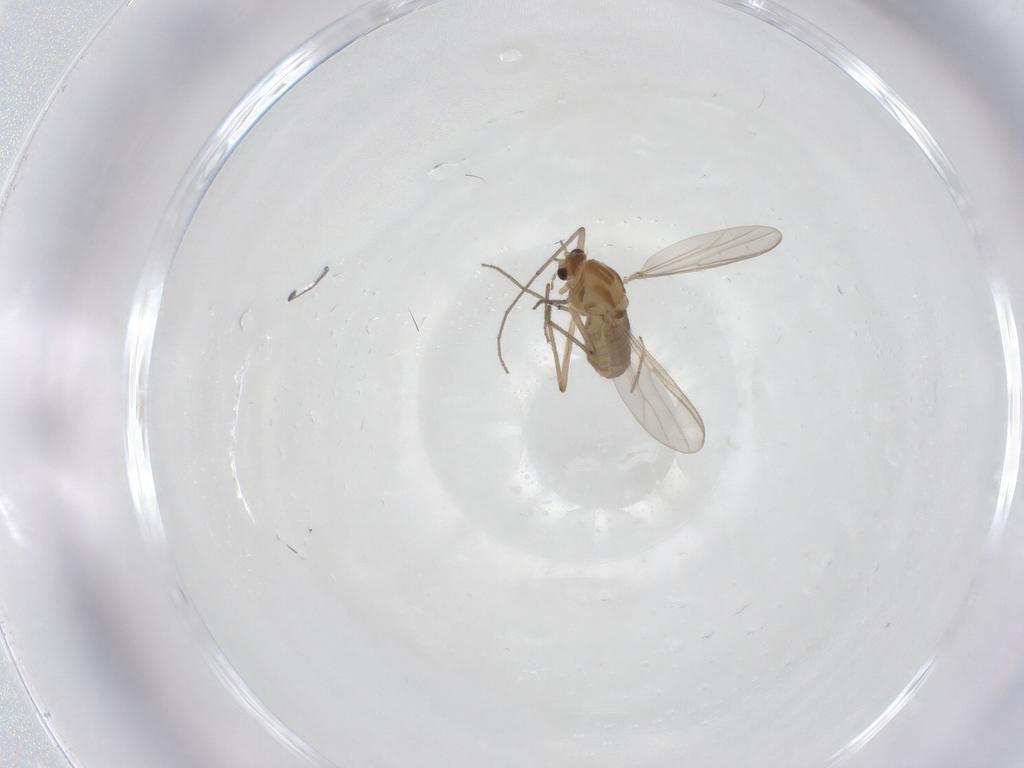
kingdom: Animalia
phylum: Arthropoda
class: Insecta
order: Diptera
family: Chironomidae
